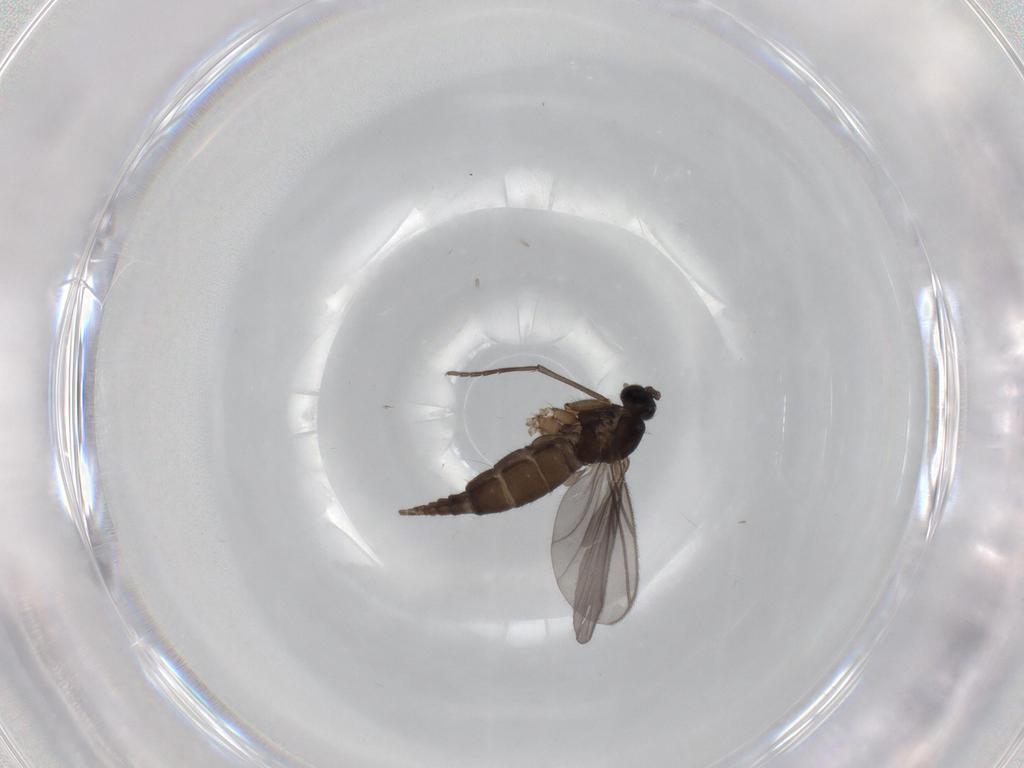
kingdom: Animalia
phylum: Arthropoda
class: Insecta
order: Diptera
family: Sciaridae
